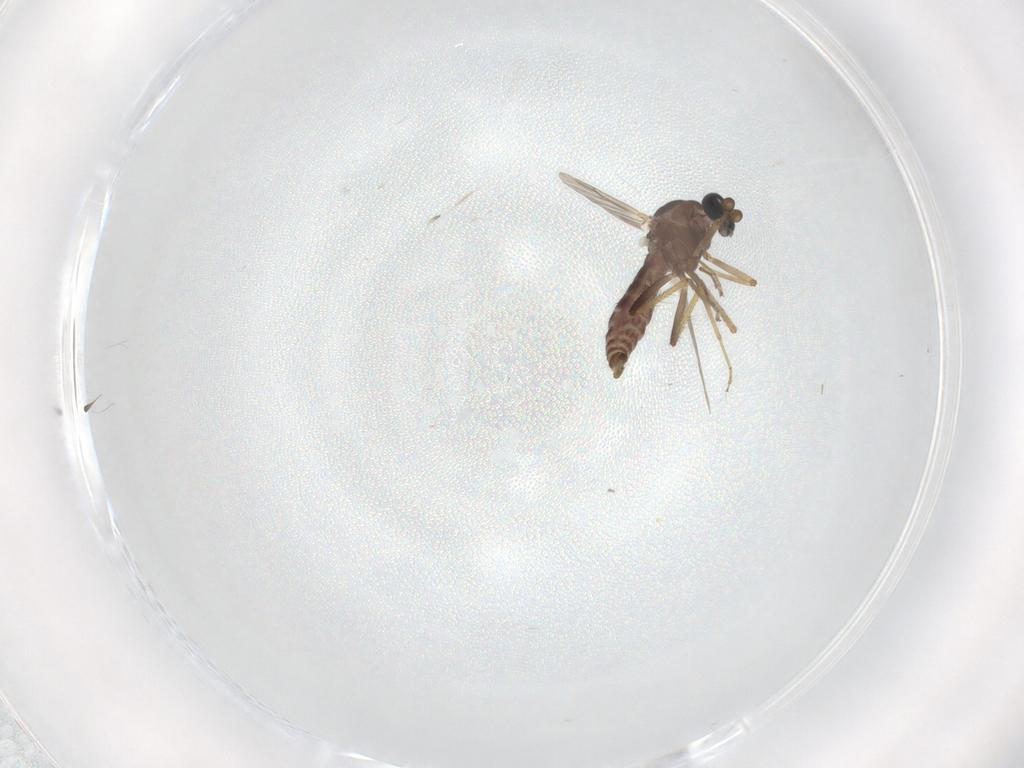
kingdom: Animalia
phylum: Arthropoda
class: Insecta
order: Diptera
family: Ceratopogonidae
